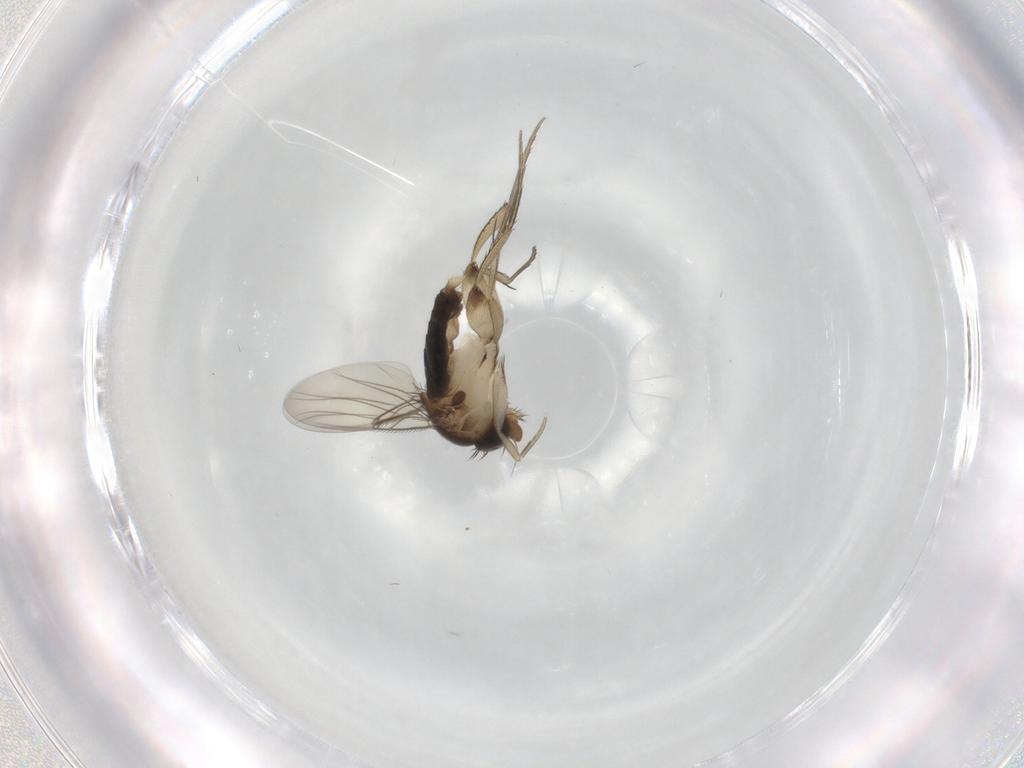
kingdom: Animalia
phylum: Arthropoda
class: Insecta
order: Diptera
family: Phoridae
